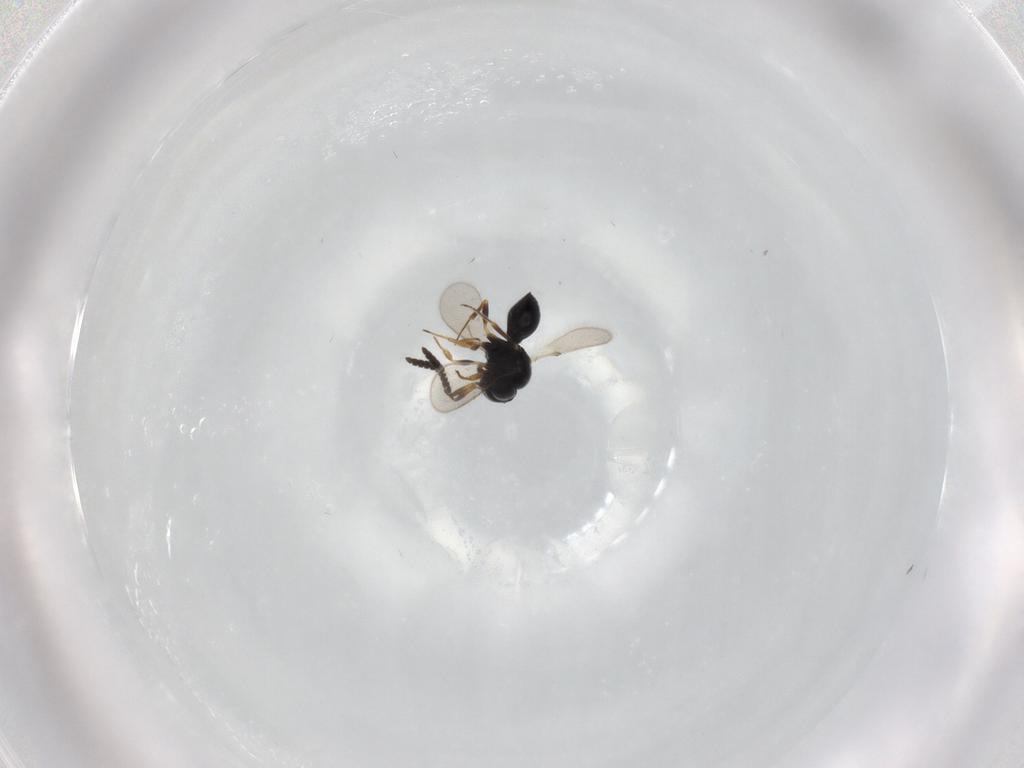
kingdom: Animalia
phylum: Arthropoda
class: Insecta
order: Hymenoptera
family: Scelionidae
